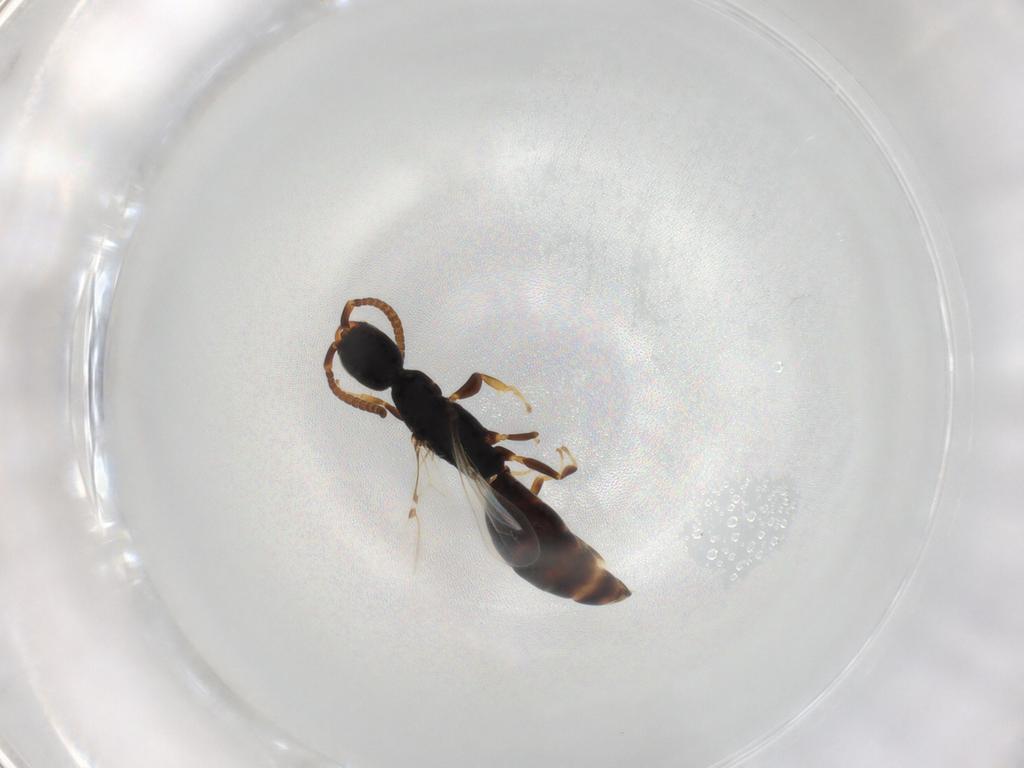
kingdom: Animalia
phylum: Arthropoda
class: Insecta
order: Hymenoptera
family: Bethylidae
